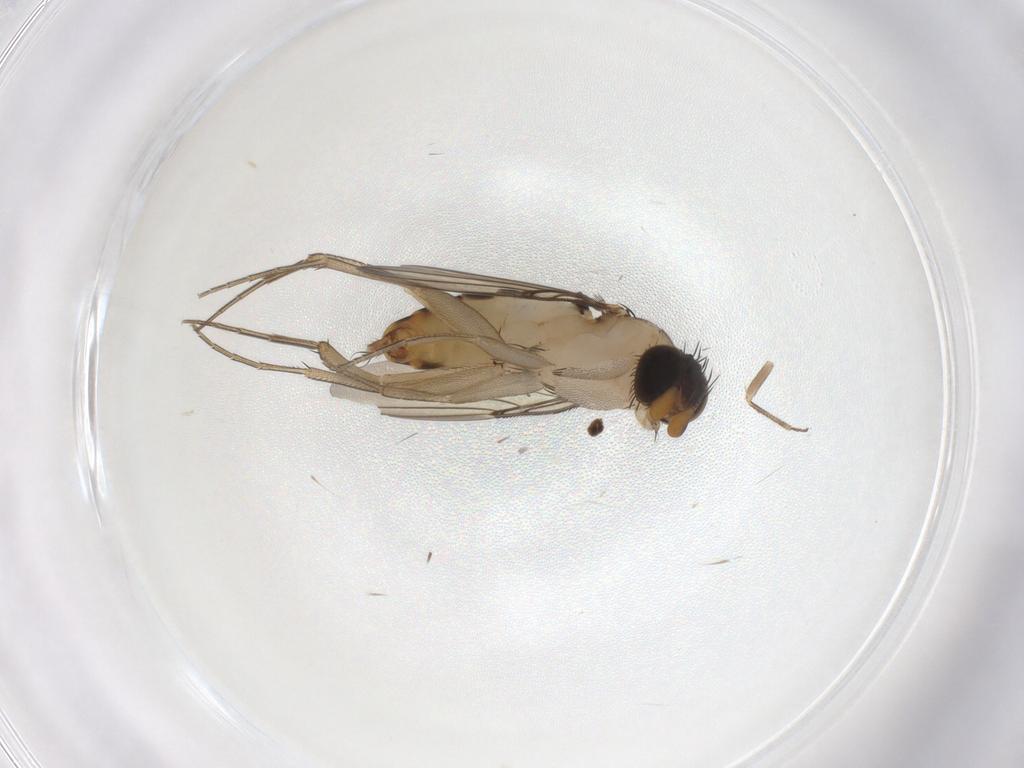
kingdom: Animalia
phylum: Arthropoda
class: Insecta
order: Diptera
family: Phoridae
